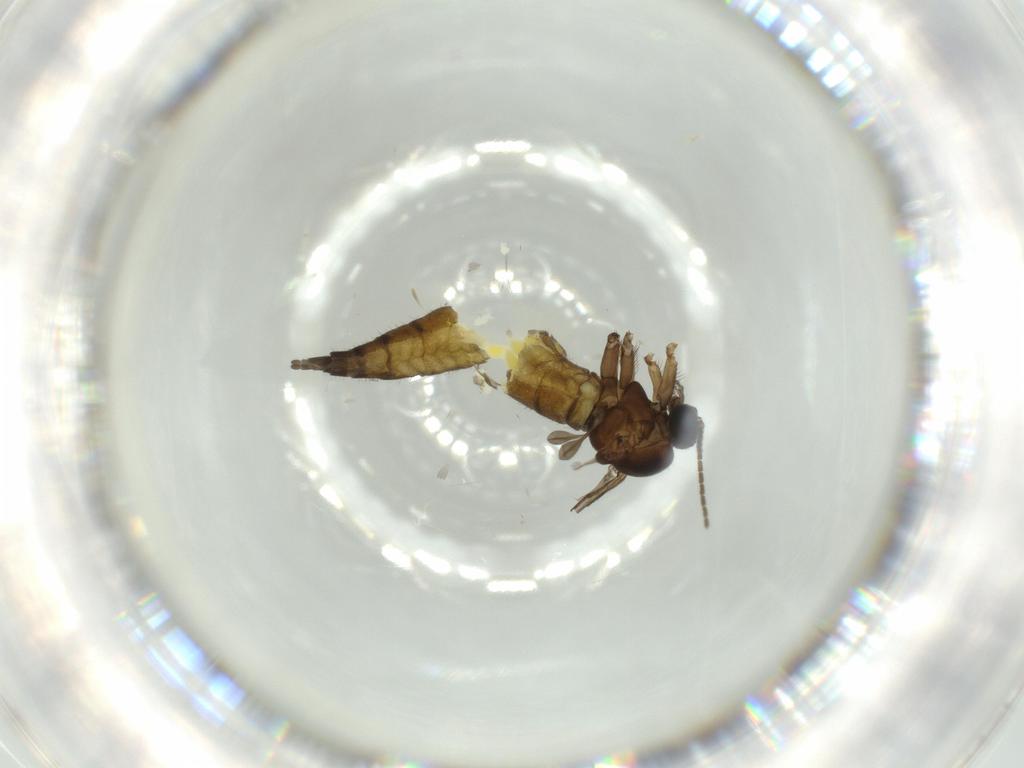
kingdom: Animalia
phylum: Arthropoda
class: Insecta
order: Diptera
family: Sciaridae
